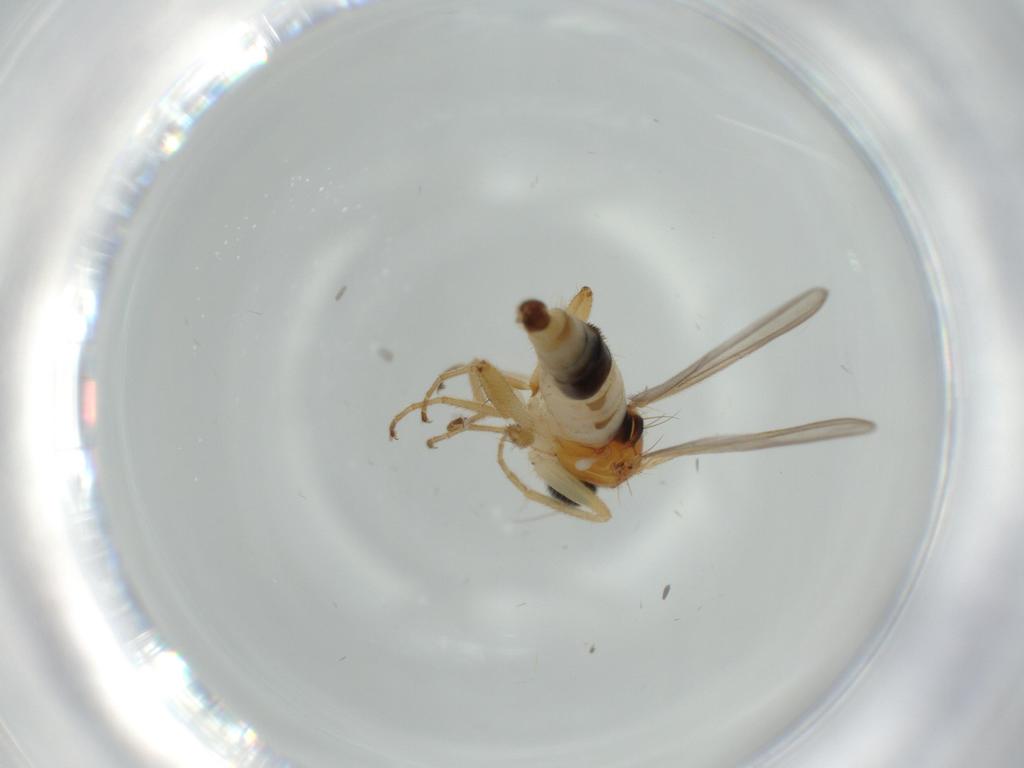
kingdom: Animalia
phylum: Arthropoda
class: Insecta
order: Diptera
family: Hybotidae
